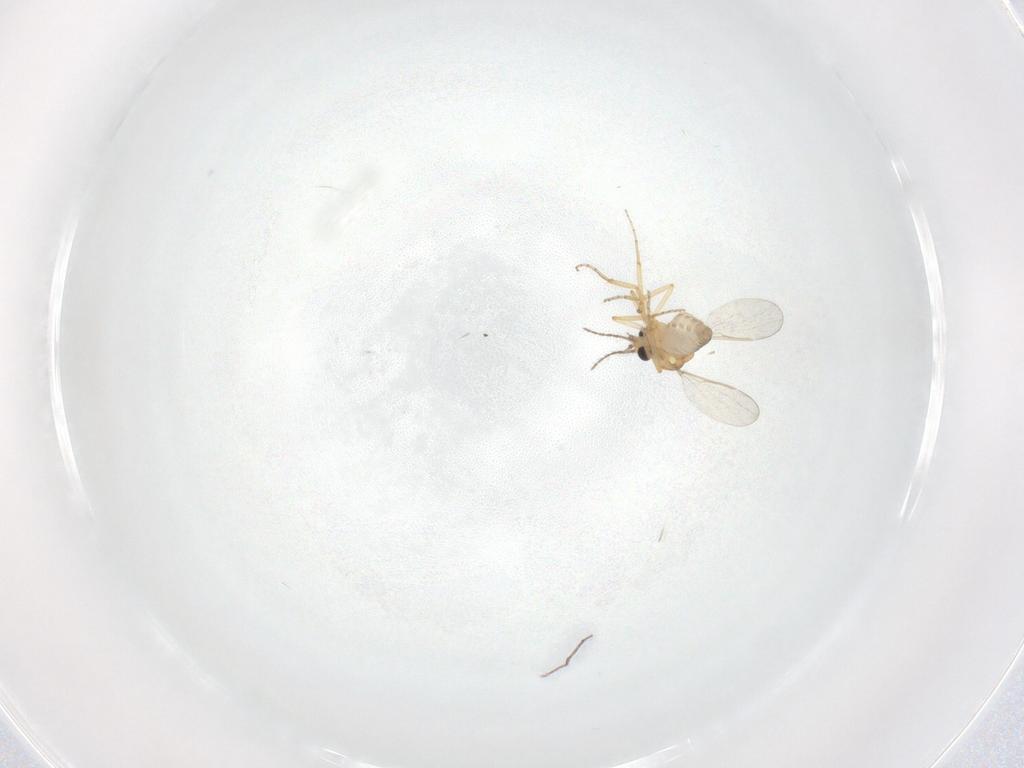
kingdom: Animalia
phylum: Arthropoda
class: Insecta
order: Diptera
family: Ceratopogonidae
